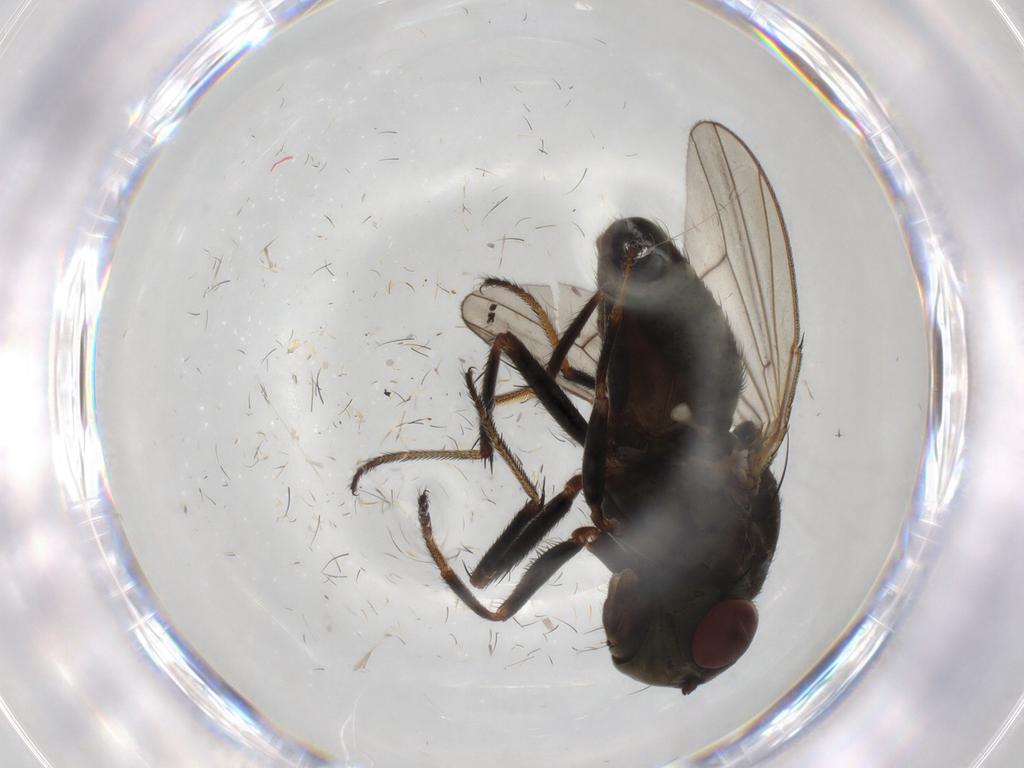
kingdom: Animalia
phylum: Arthropoda
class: Insecta
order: Diptera
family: Ephydridae
